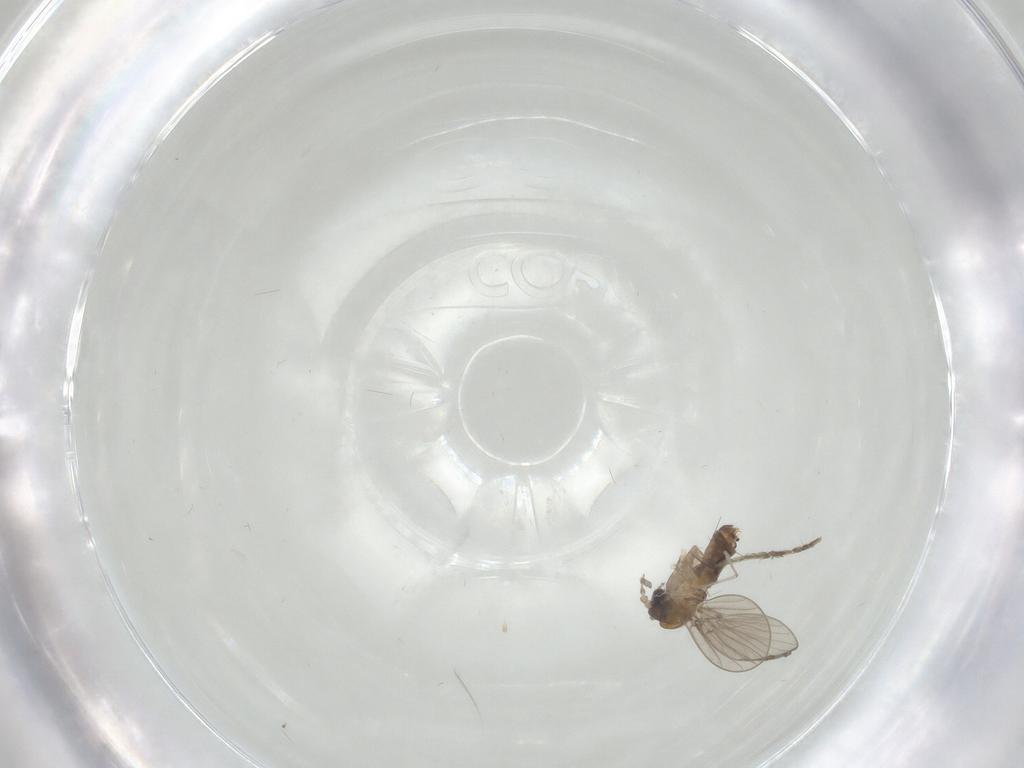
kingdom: Animalia
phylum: Arthropoda
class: Insecta
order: Diptera
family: Cecidomyiidae
